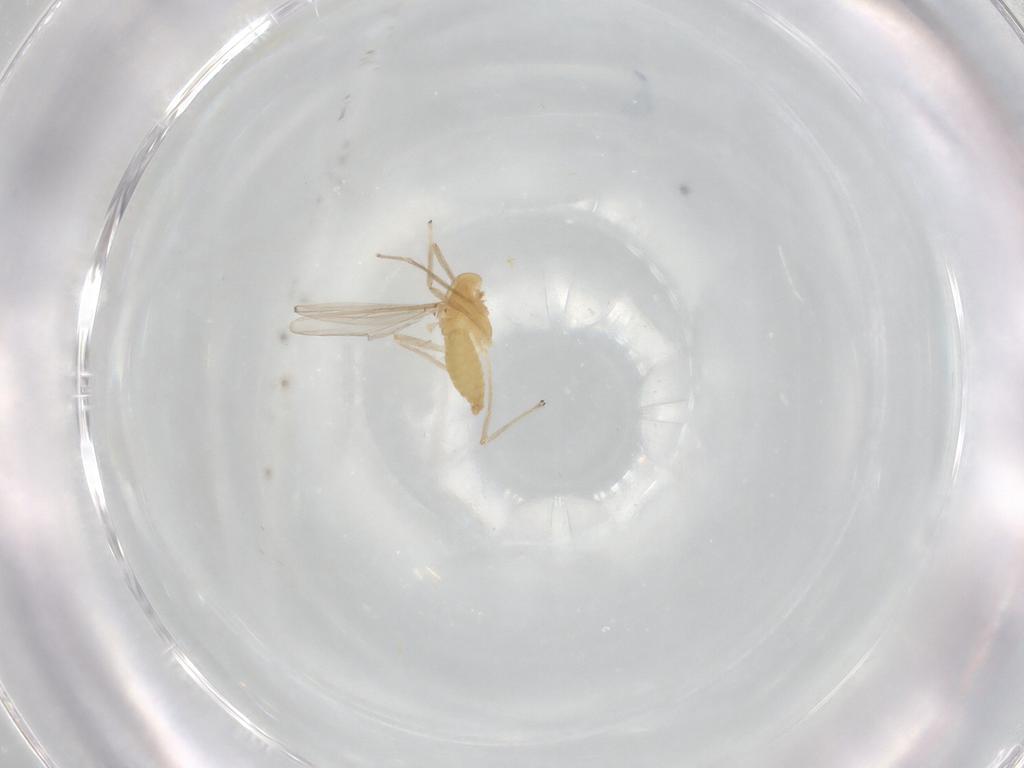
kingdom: Animalia
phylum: Arthropoda
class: Insecta
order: Diptera
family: Chironomidae
